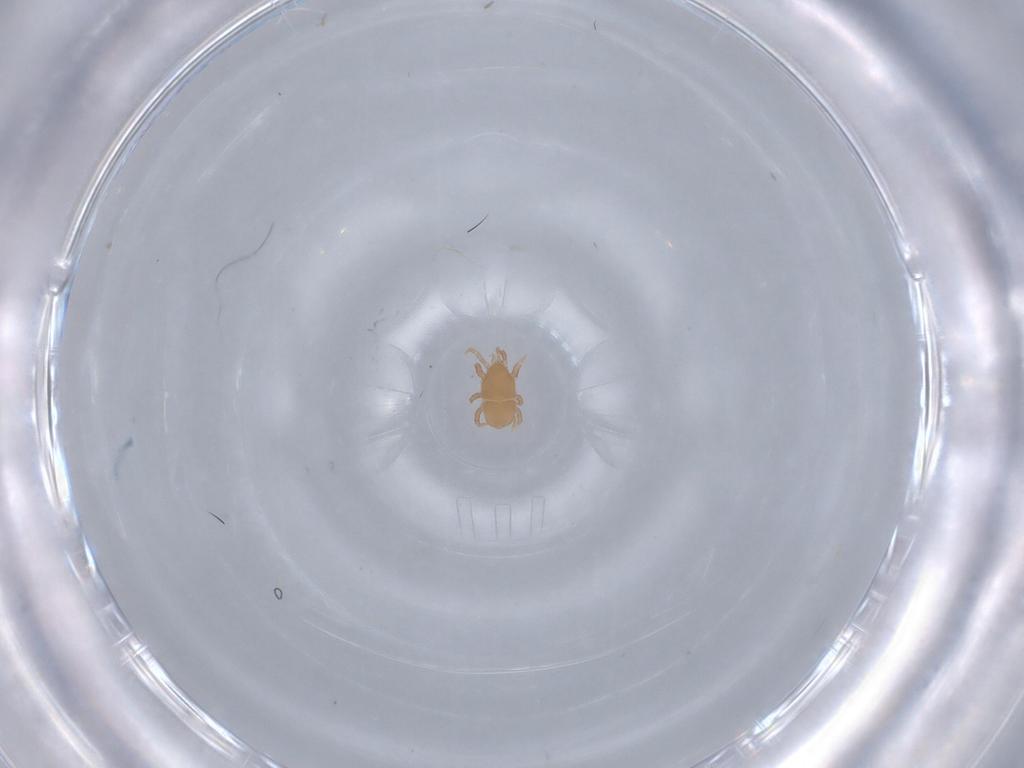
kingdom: Animalia
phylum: Arthropoda
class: Arachnida
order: Mesostigmata
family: Halolaelapidae
